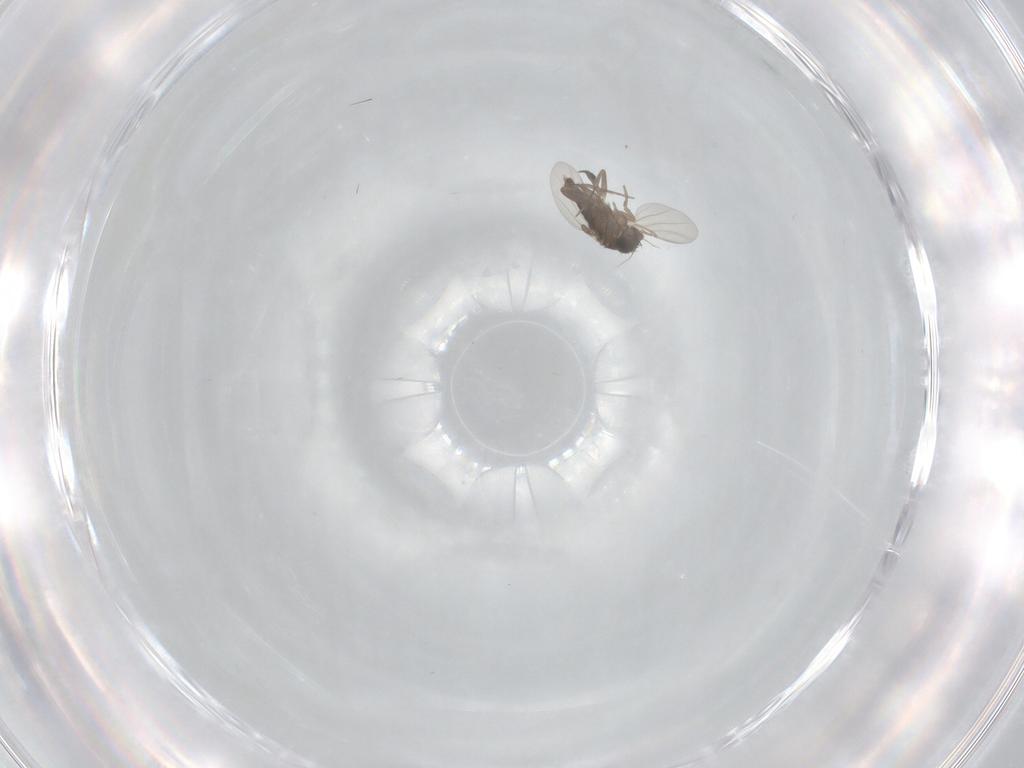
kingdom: Animalia
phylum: Arthropoda
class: Insecta
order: Diptera
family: Phoridae
